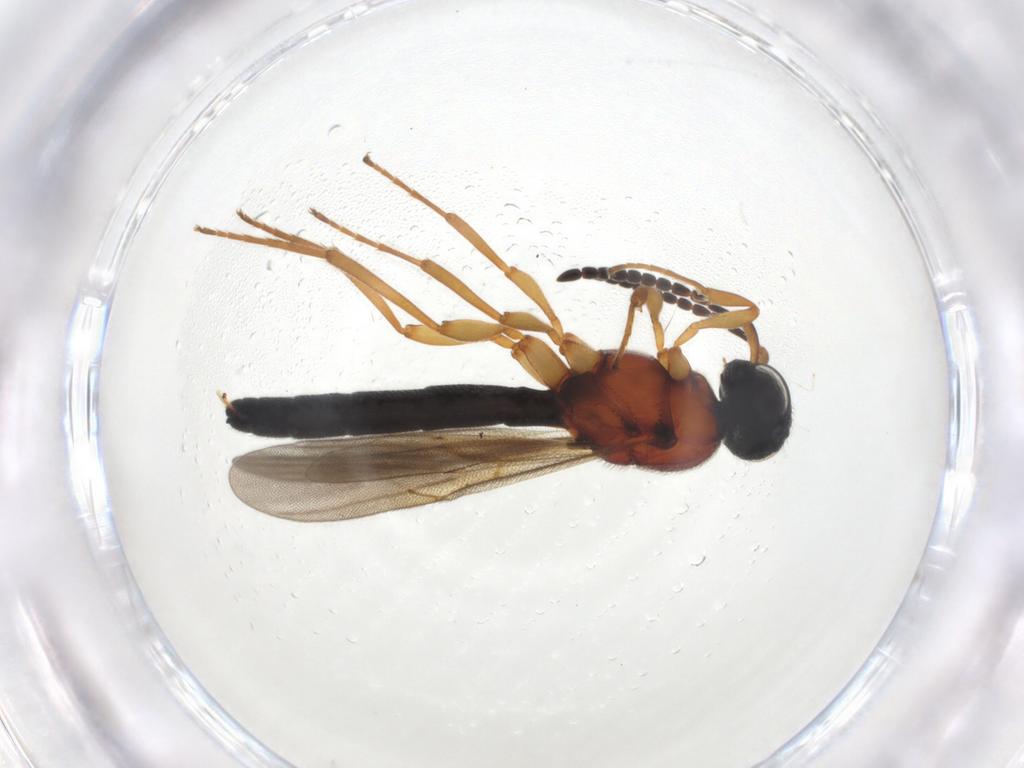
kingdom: Animalia
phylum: Arthropoda
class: Insecta
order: Hymenoptera
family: Scelionidae
